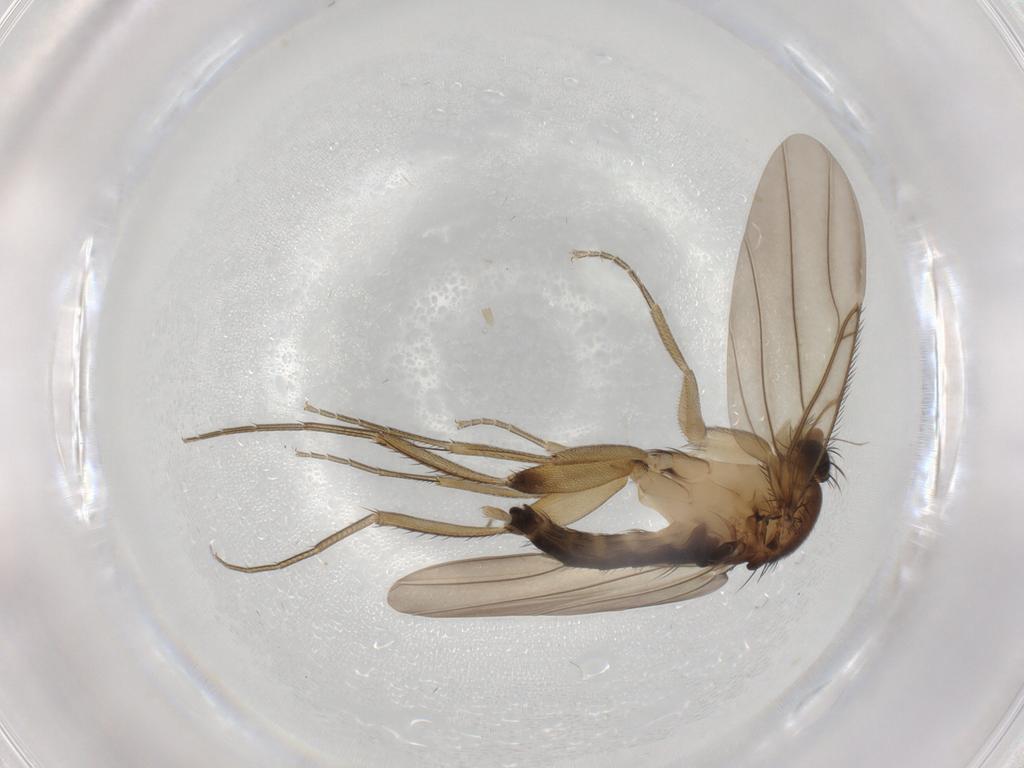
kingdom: Animalia
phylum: Arthropoda
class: Insecta
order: Diptera
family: Phoridae
